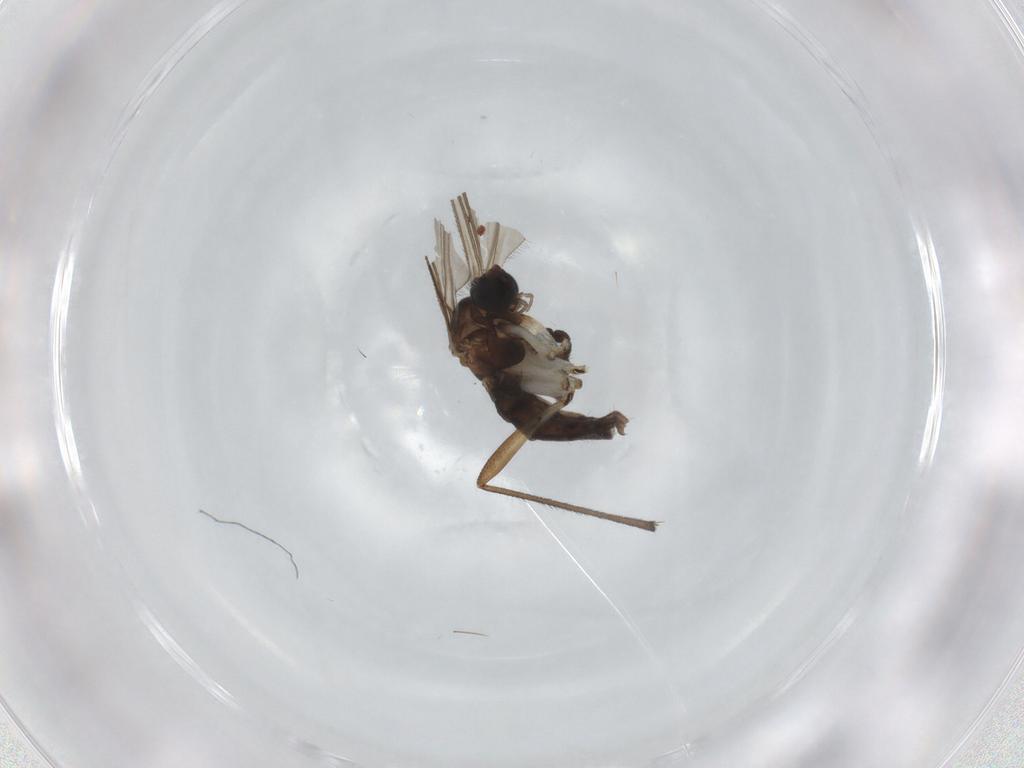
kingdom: Animalia
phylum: Arthropoda
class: Insecta
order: Diptera
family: Sciaridae
